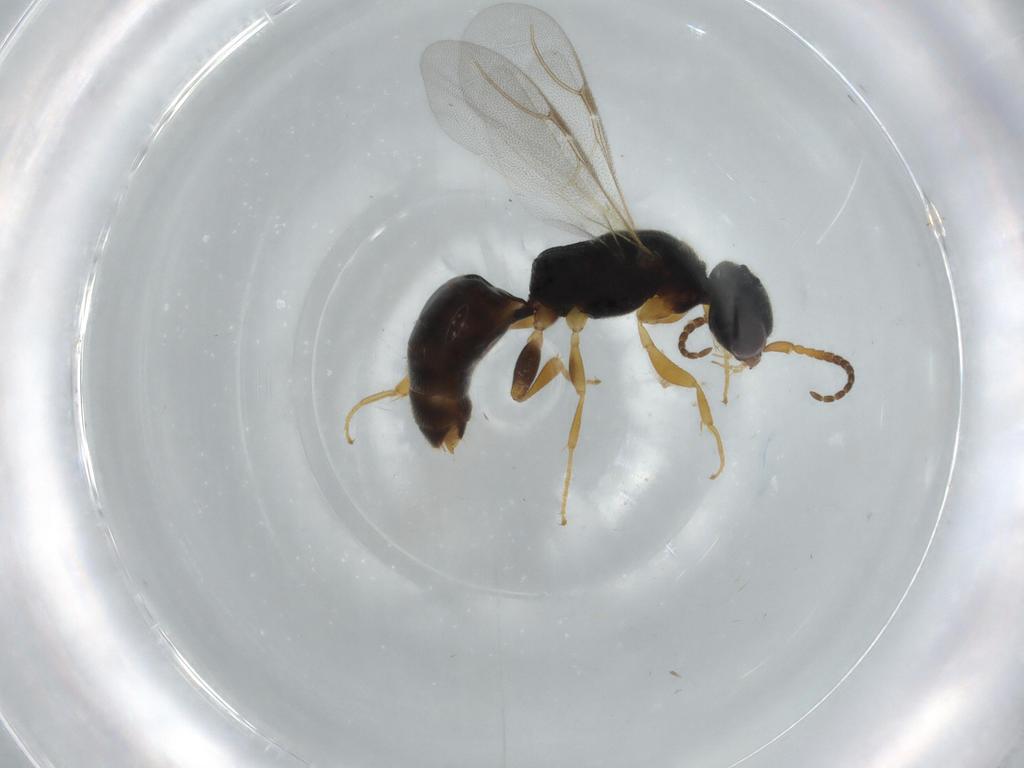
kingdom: Animalia
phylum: Arthropoda
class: Insecta
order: Hymenoptera
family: Bethylidae
